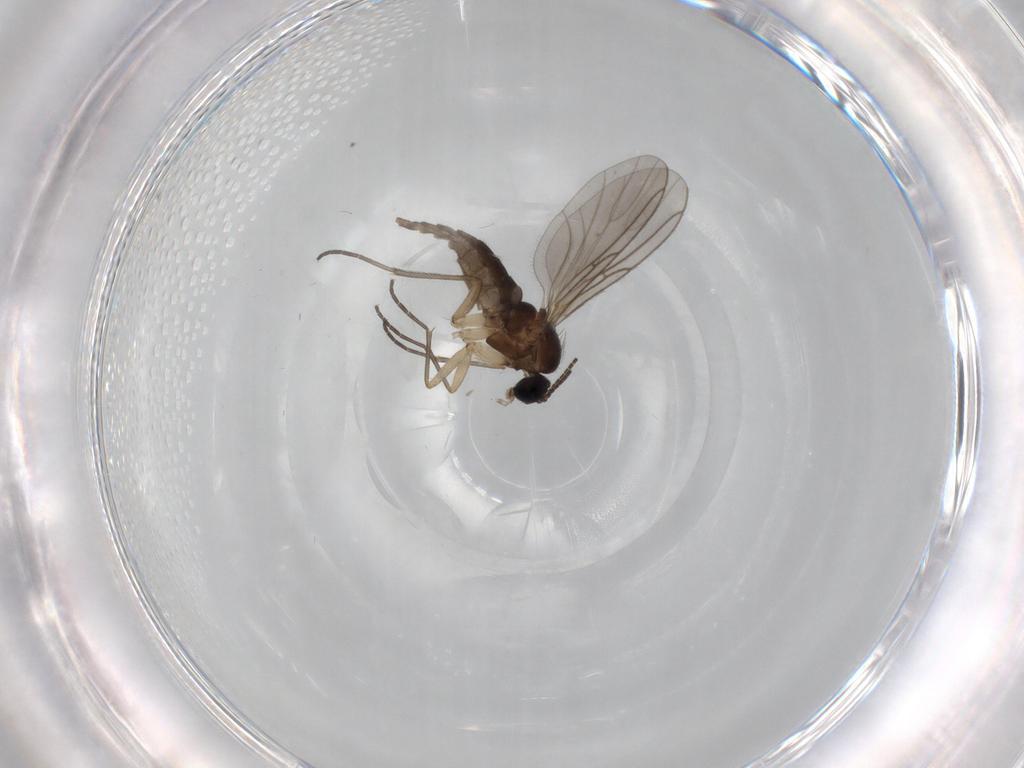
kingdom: Animalia
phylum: Arthropoda
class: Insecta
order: Diptera
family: Sciaridae
